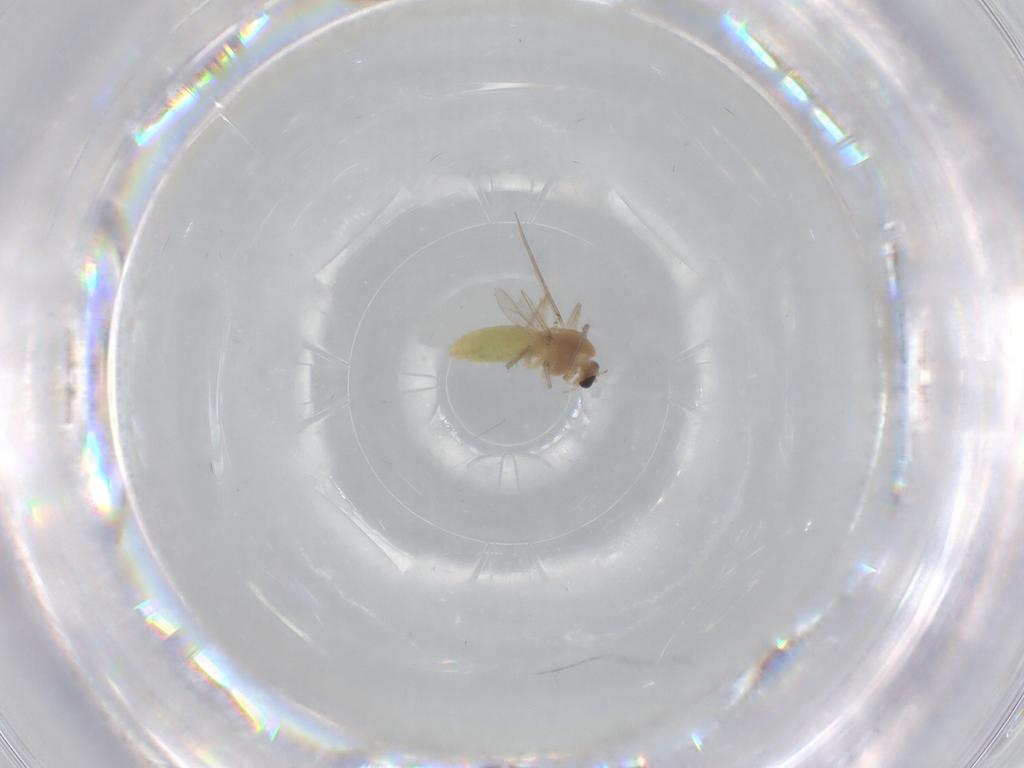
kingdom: Animalia
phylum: Arthropoda
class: Insecta
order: Diptera
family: Chironomidae
